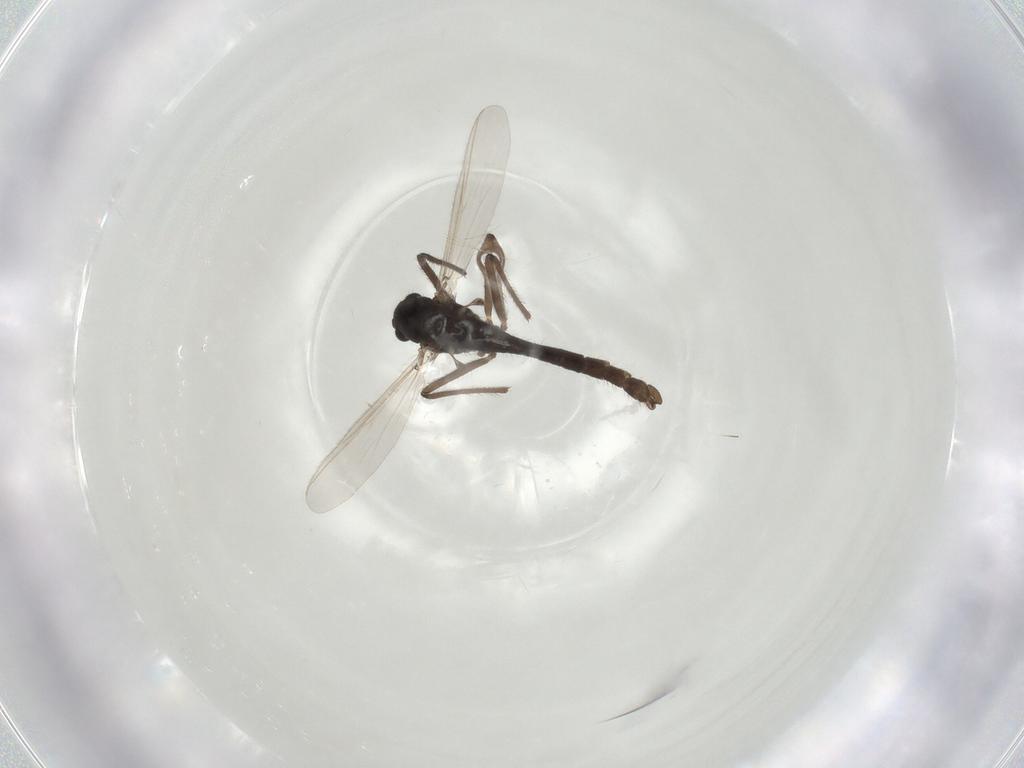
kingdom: Animalia
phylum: Arthropoda
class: Insecta
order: Diptera
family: Chironomidae
